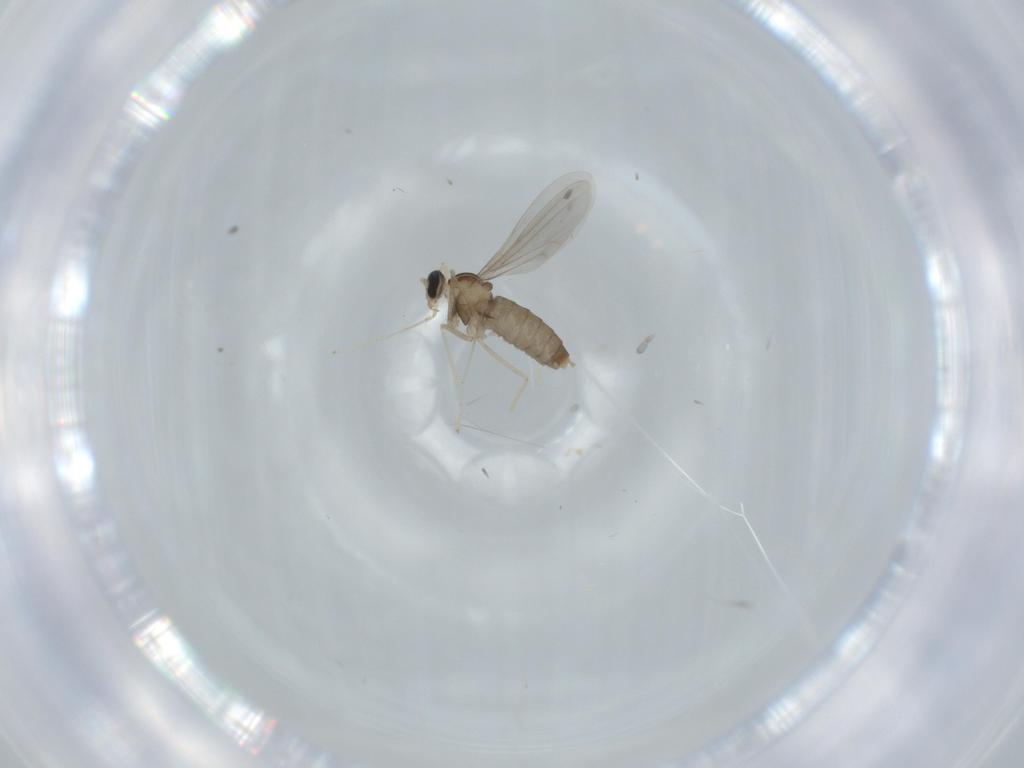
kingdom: Animalia
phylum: Arthropoda
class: Insecta
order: Diptera
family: Cecidomyiidae
